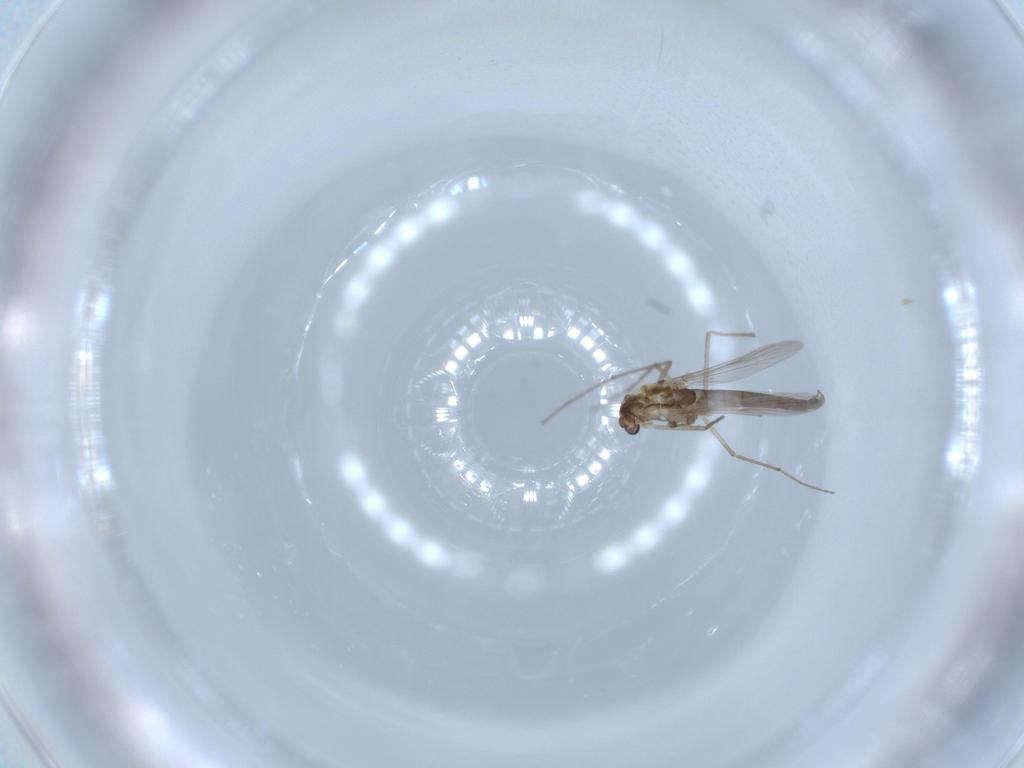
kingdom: Animalia
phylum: Arthropoda
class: Insecta
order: Diptera
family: Chironomidae
